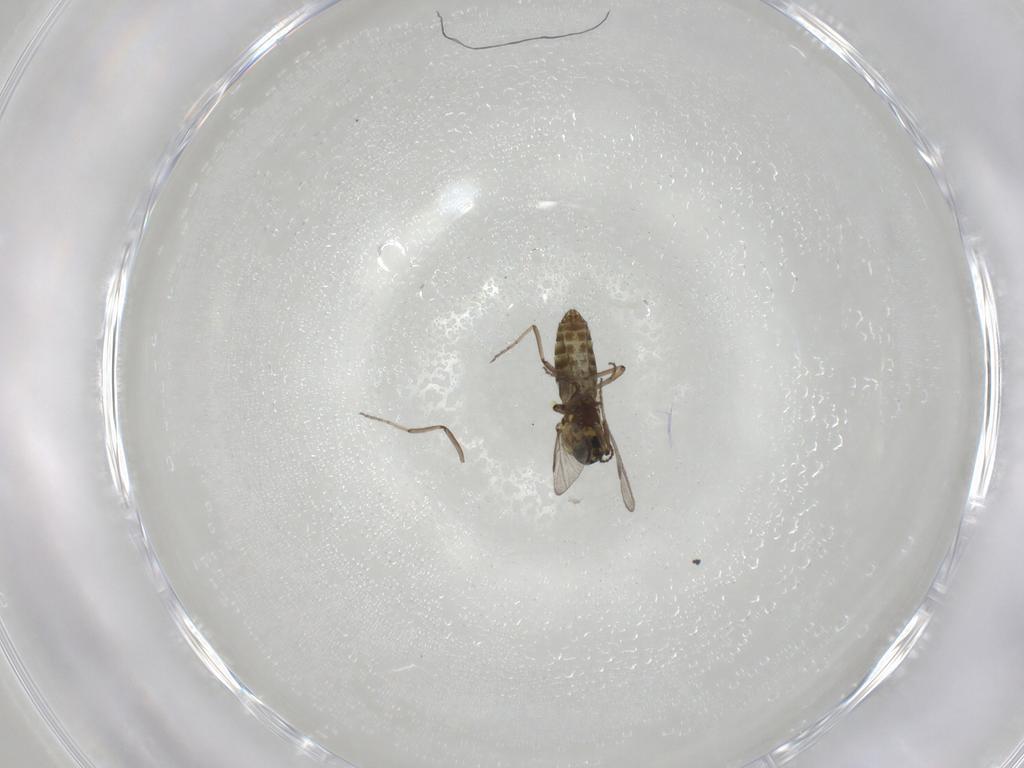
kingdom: Animalia
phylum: Arthropoda
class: Insecta
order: Diptera
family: Ceratopogonidae
